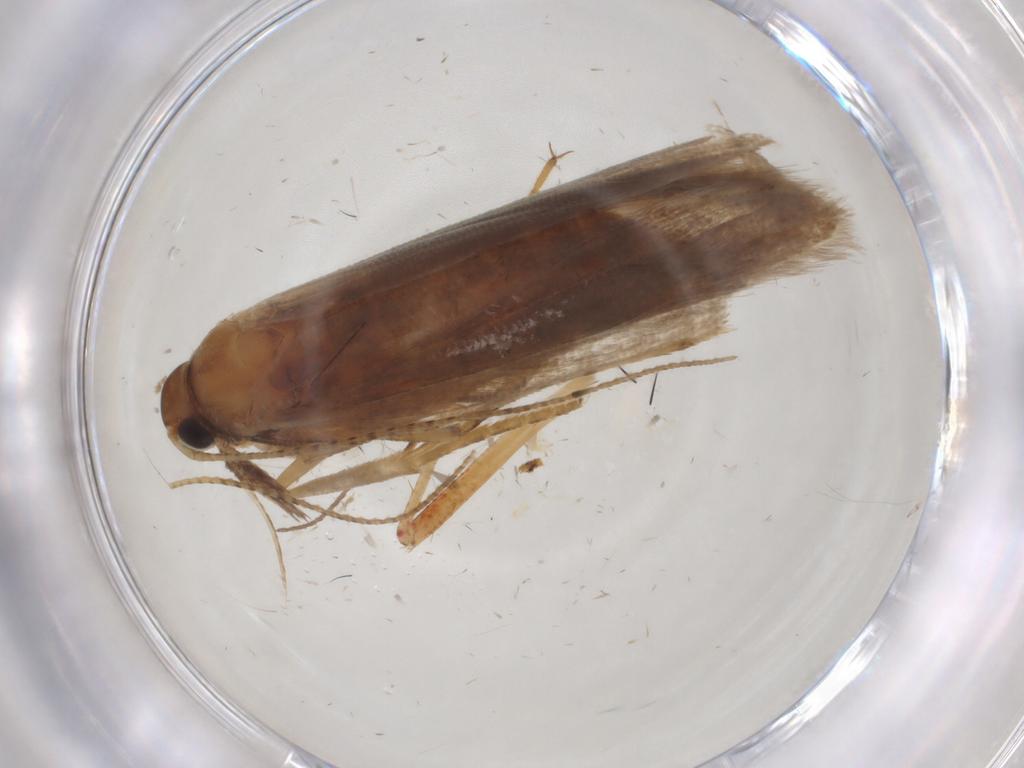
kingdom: Animalia
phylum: Arthropoda
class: Insecta
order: Lepidoptera
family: Gelechiidae
